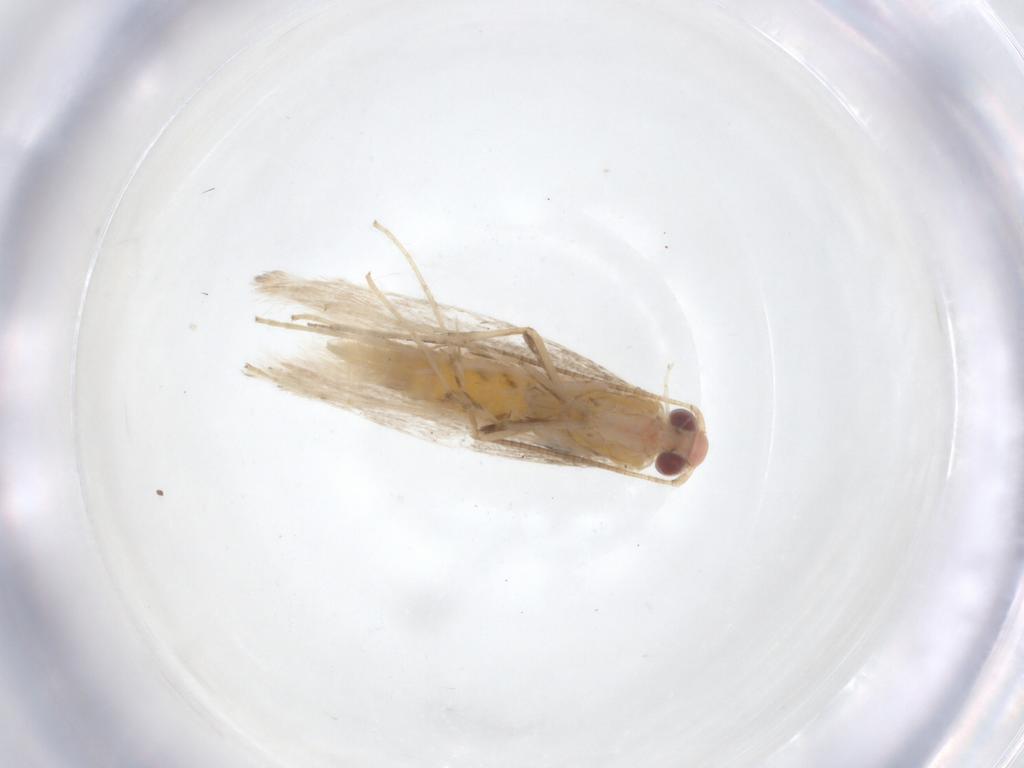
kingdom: Animalia
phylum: Arthropoda
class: Insecta
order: Lepidoptera
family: Gracillariidae
